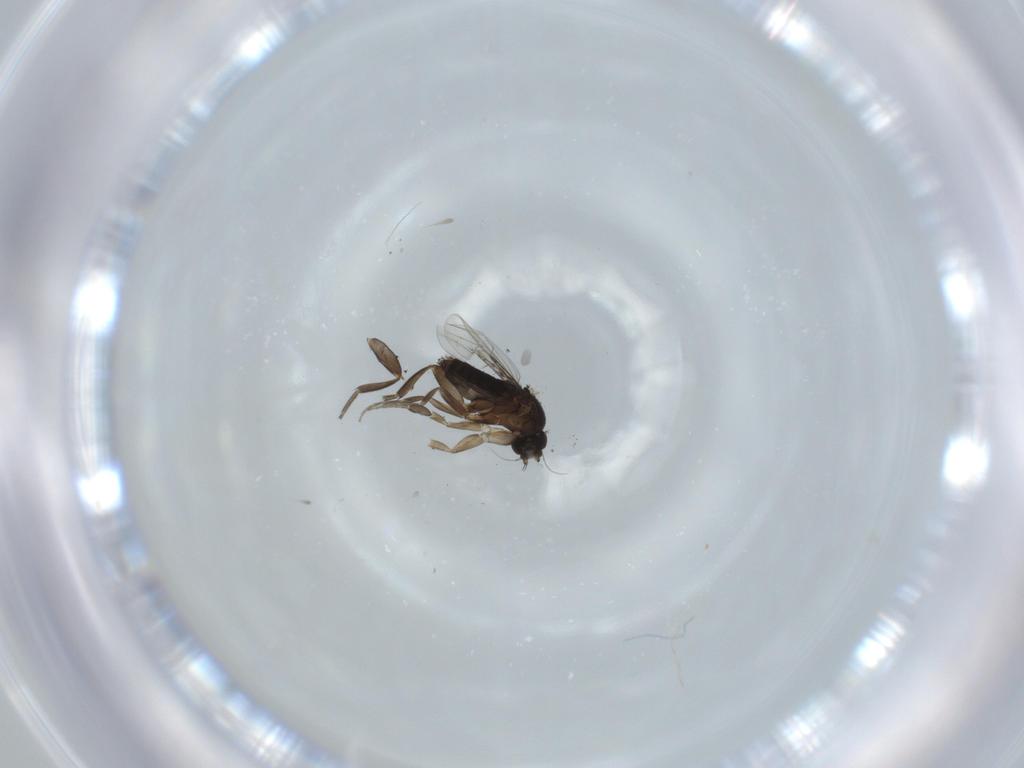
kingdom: Animalia
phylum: Arthropoda
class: Insecta
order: Diptera
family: Phoridae
